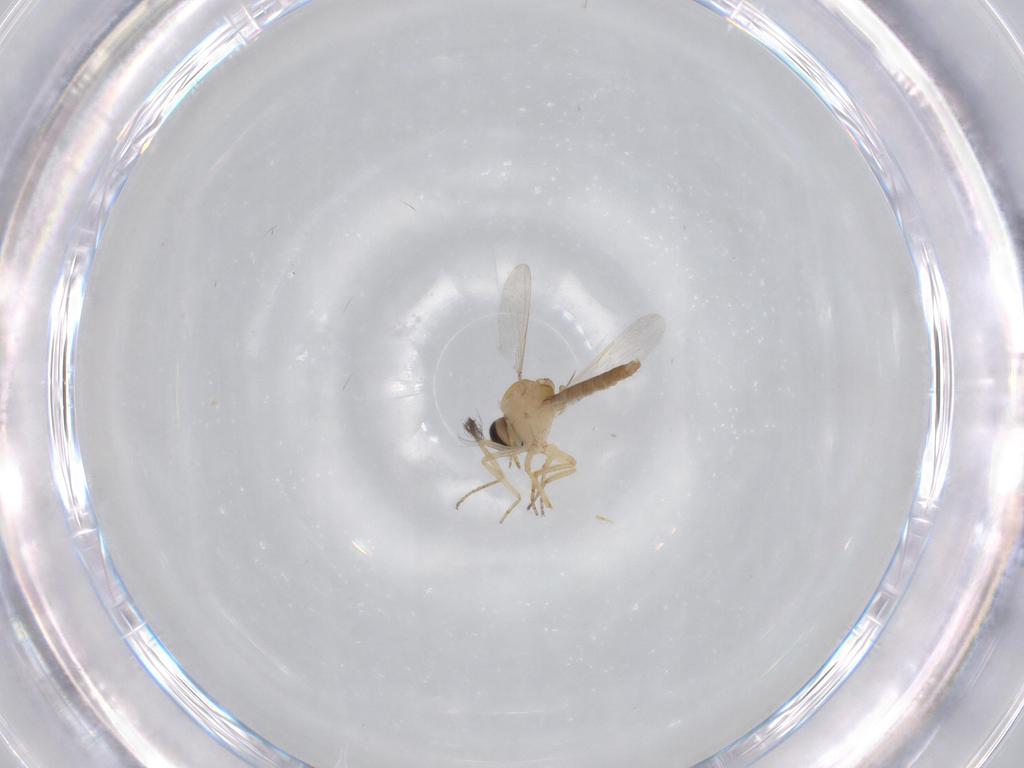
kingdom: Animalia
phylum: Arthropoda
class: Insecta
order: Diptera
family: Ceratopogonidae
